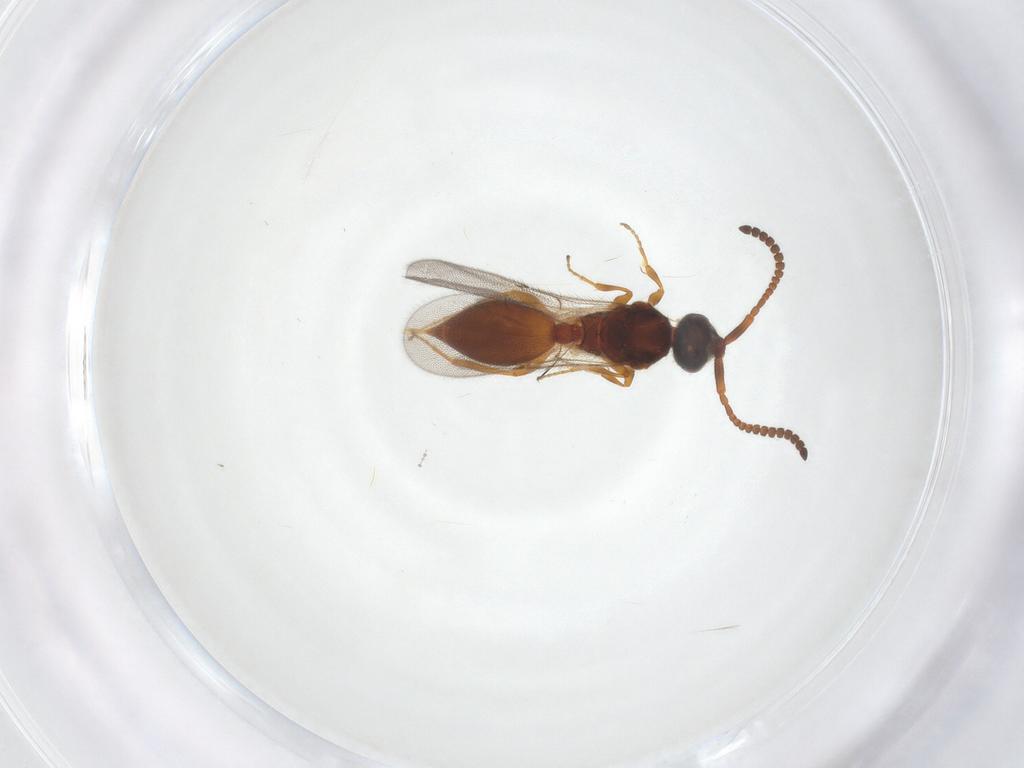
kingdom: Animalia
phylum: Arthropoda
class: Insecta
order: Hymenoptera
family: Diapriidae
